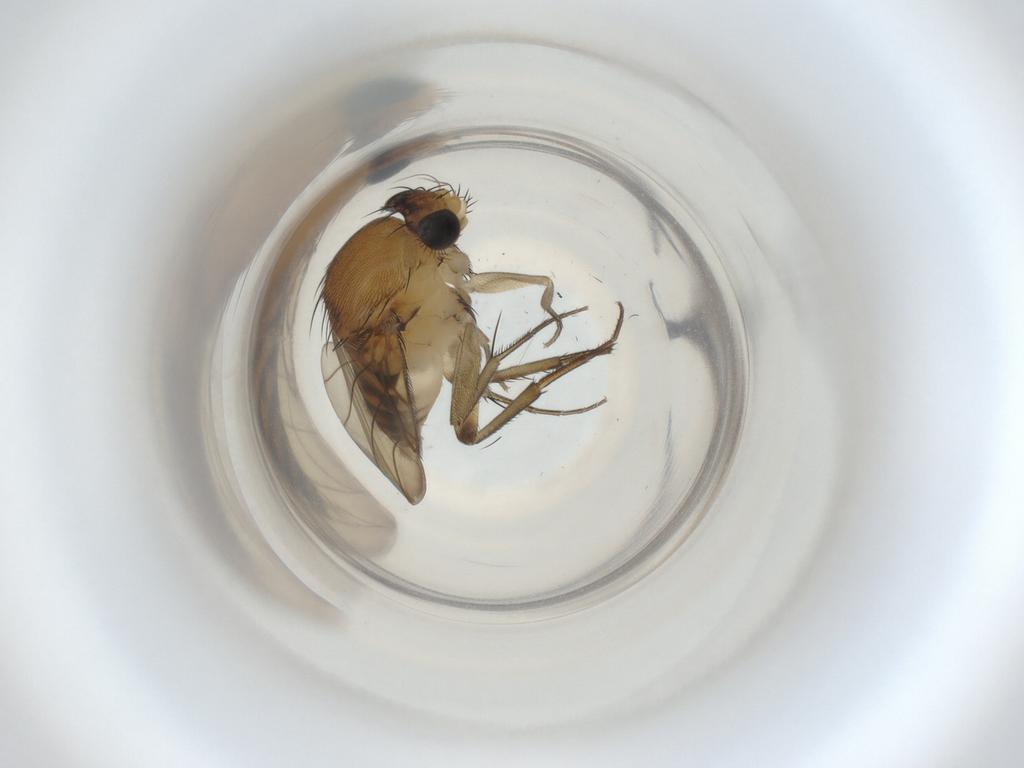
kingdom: Animalia
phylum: Arthropoda
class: Insecta
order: Diptera
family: Phoridae
